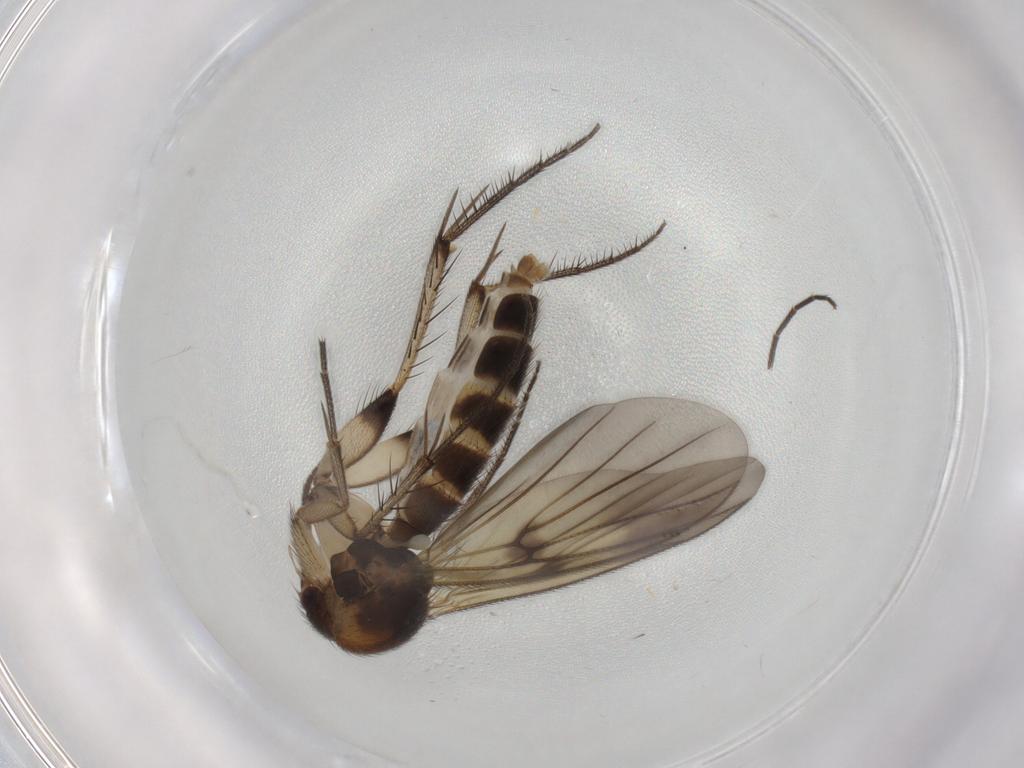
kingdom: Animalia
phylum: Arthropoda
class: Insecta
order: Diptera
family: Mycetophilidae
